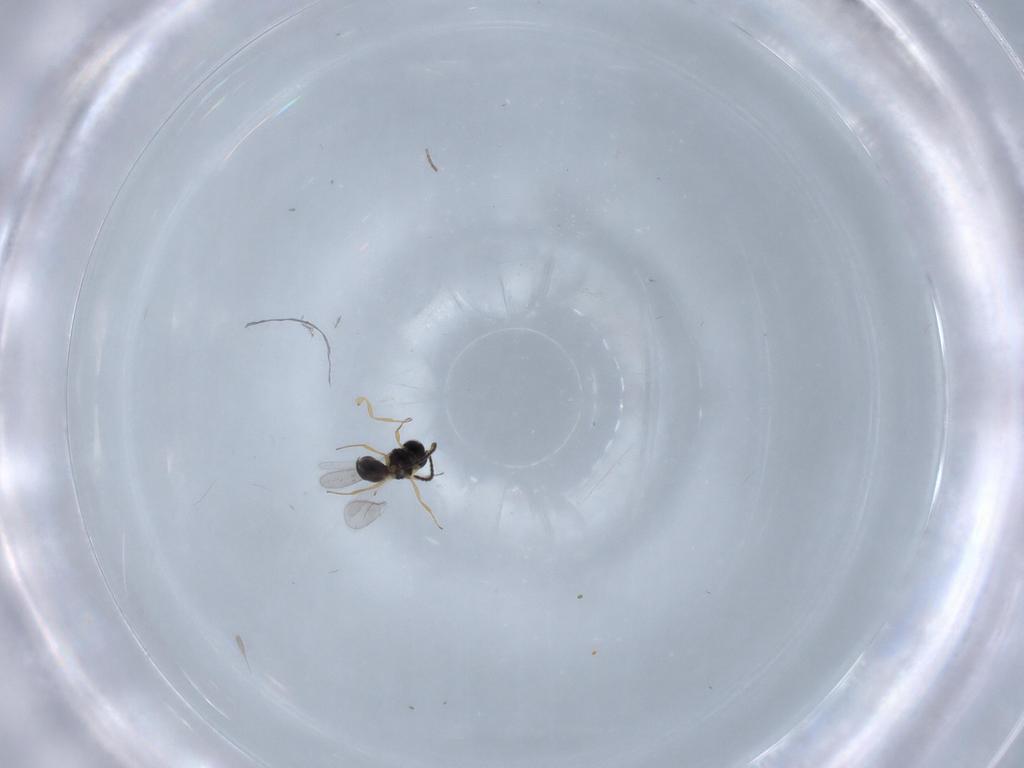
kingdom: Animalia
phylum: Arthropoda
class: Insecta
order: Hymenoptera
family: Scelionidae
